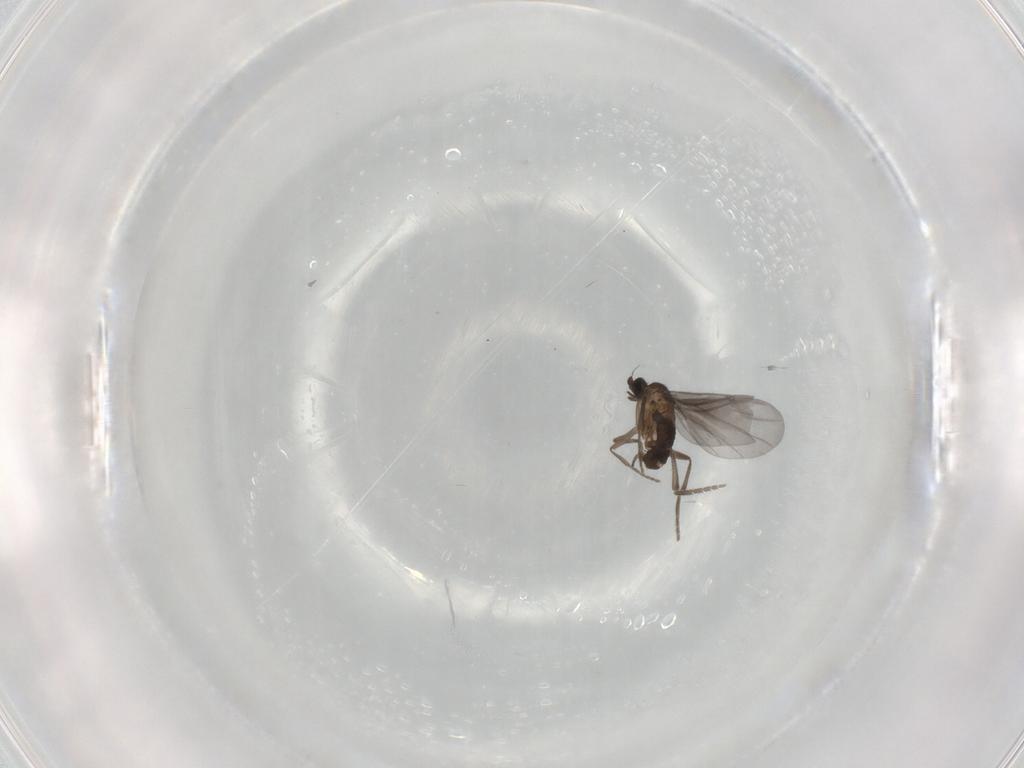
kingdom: Animalia
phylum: Arthropoda
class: Insecta
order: Diptera
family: Phoridae
